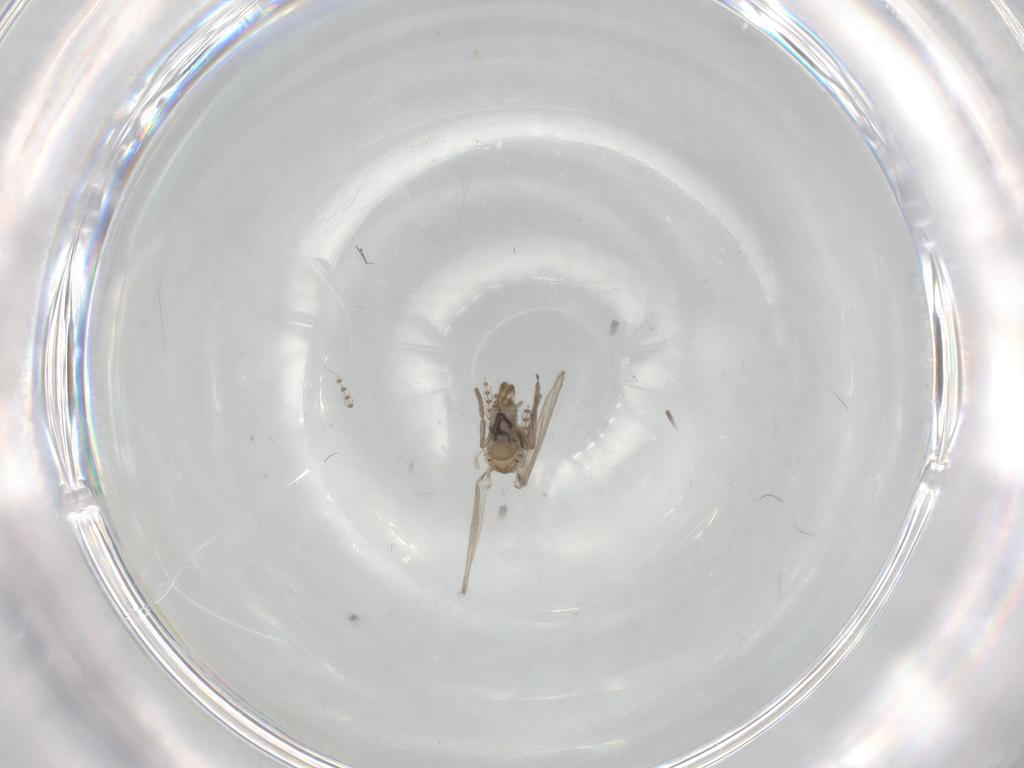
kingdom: Animalia
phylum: Arthropoda
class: Insecta
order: Diptera
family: Psychodidae
